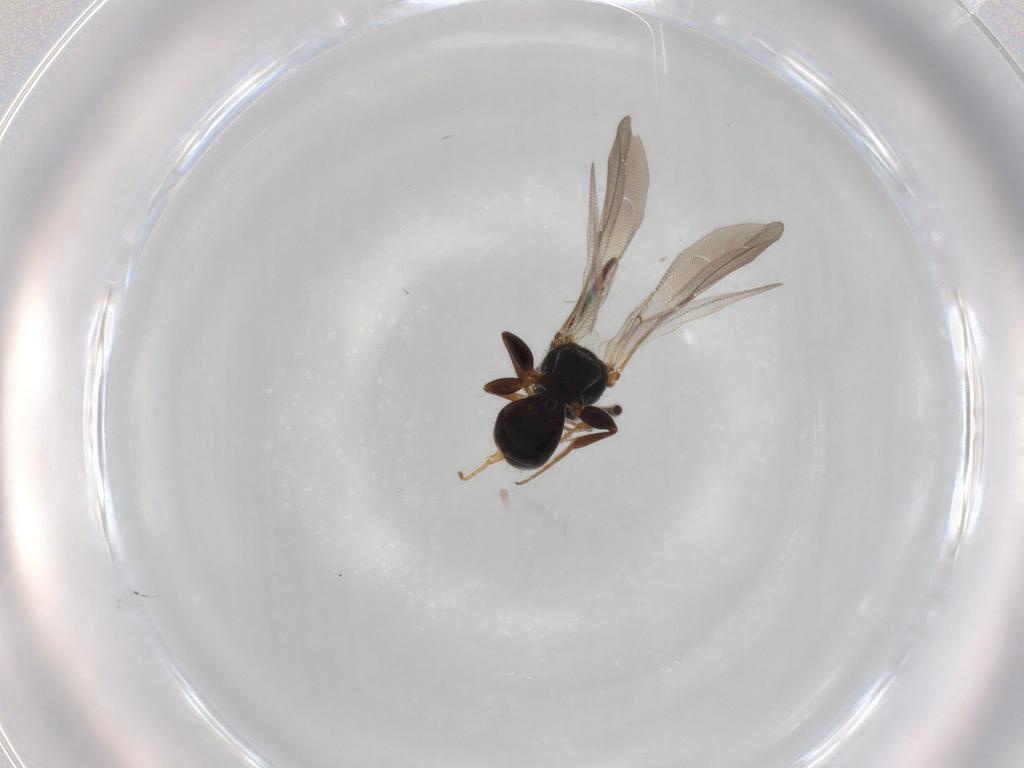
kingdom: Animalia
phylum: Arthropoda
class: Insecta
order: Hymenoptera
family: Bethylidae
